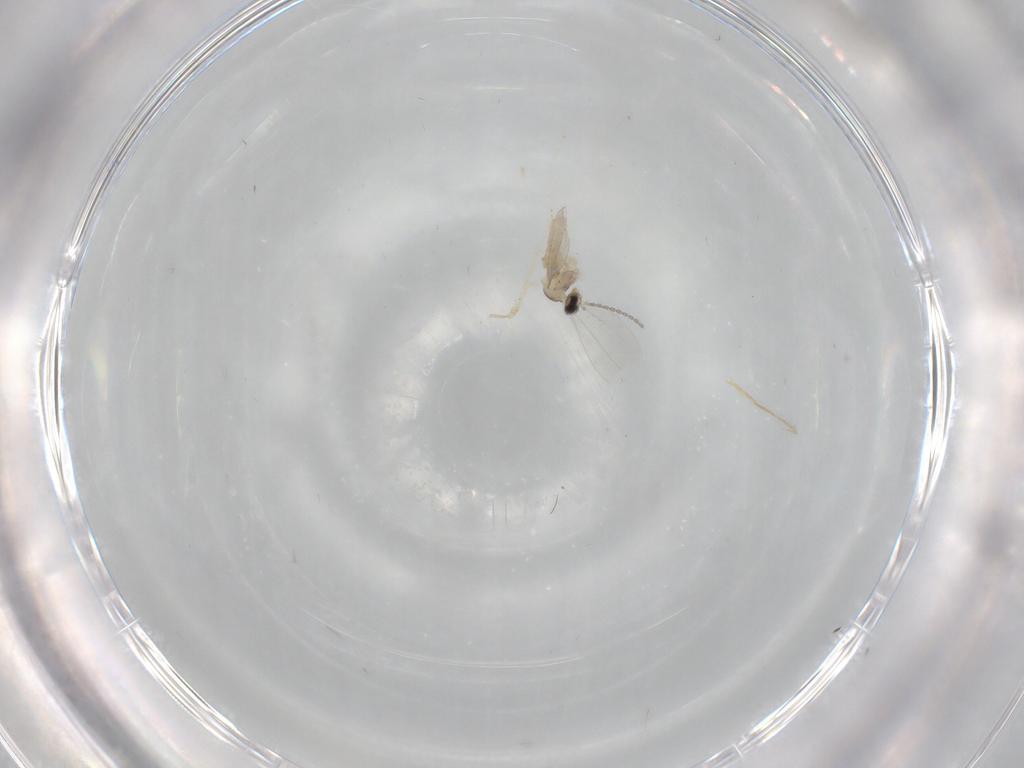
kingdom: Animalia
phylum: Arthropoda
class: Insecta
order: Diptera
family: Cecidomyiidae
